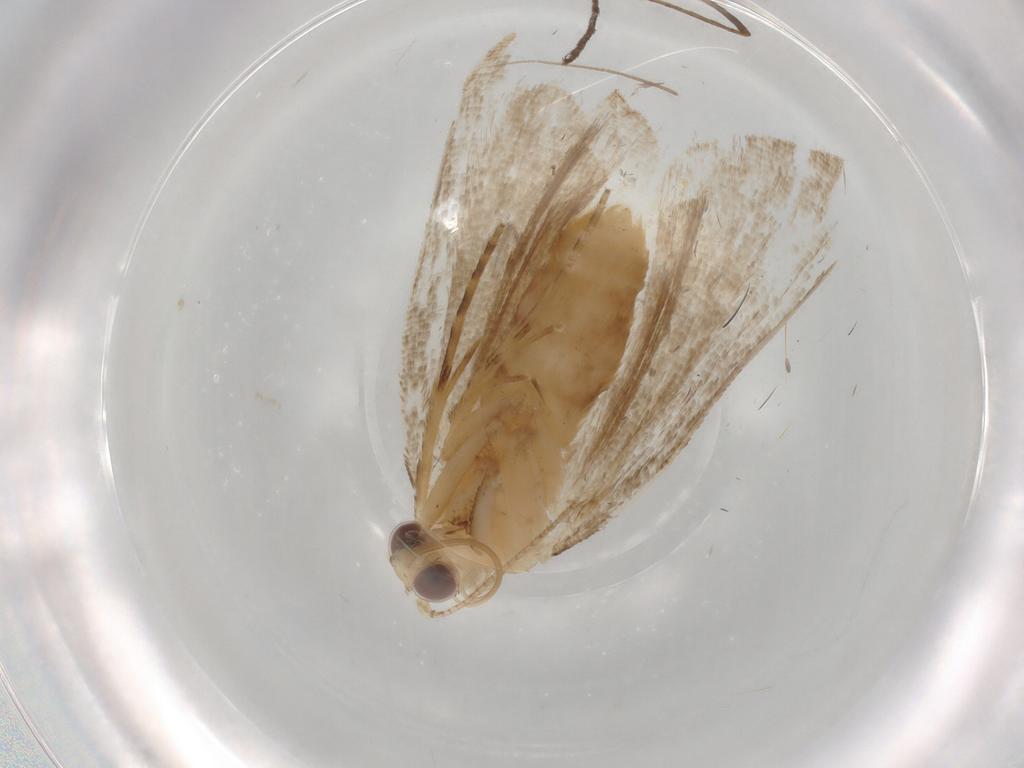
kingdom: Animalia
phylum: Arthropoda
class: Insecta
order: Lepidoptera
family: Erebidae
